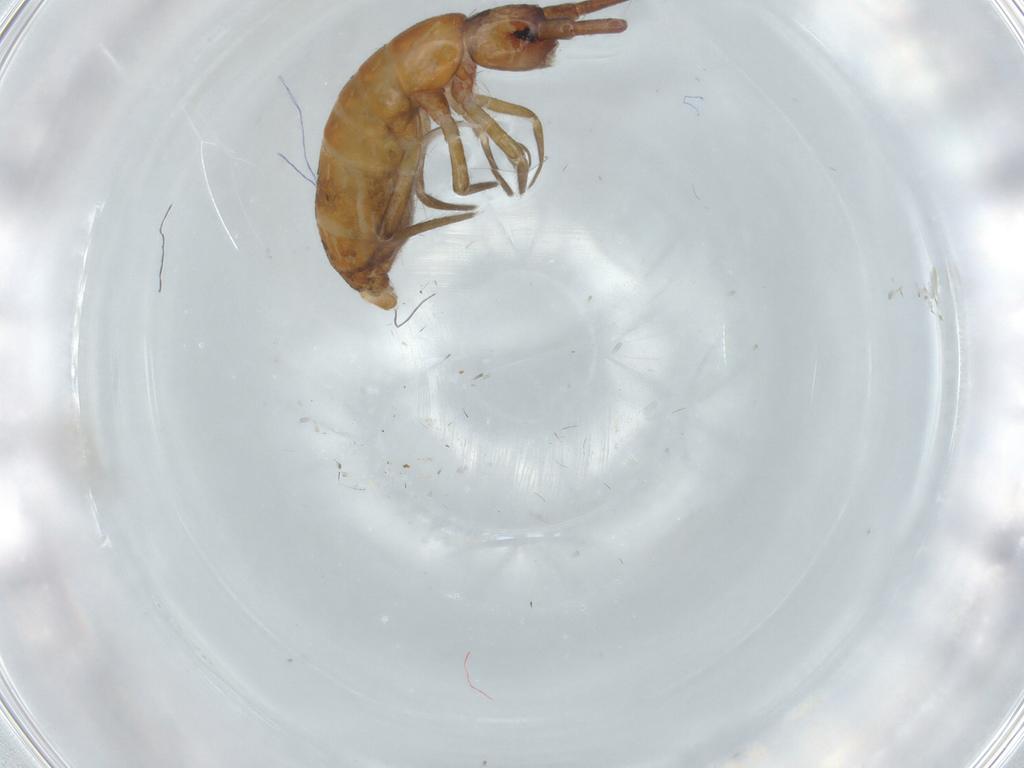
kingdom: Animalia
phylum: Arthropoda
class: Collembola
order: Entomobryomorpha
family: Tomoceridae
